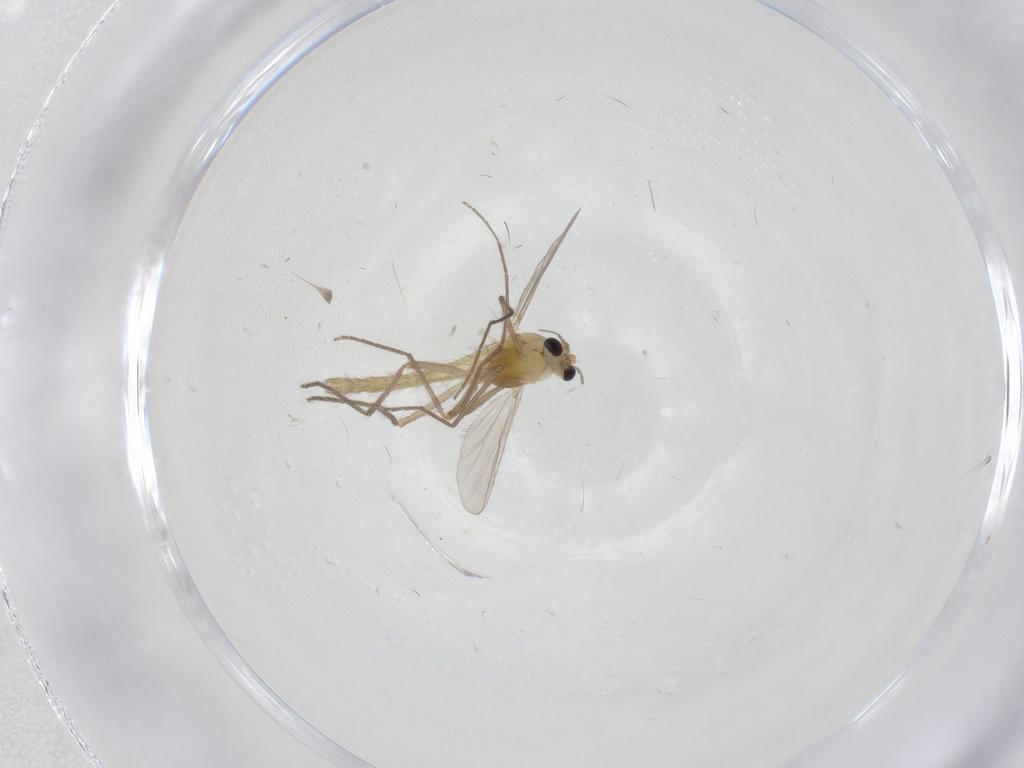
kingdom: Animalia
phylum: Arthropoda
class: Insecta
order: Diptera
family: Chironomidae
